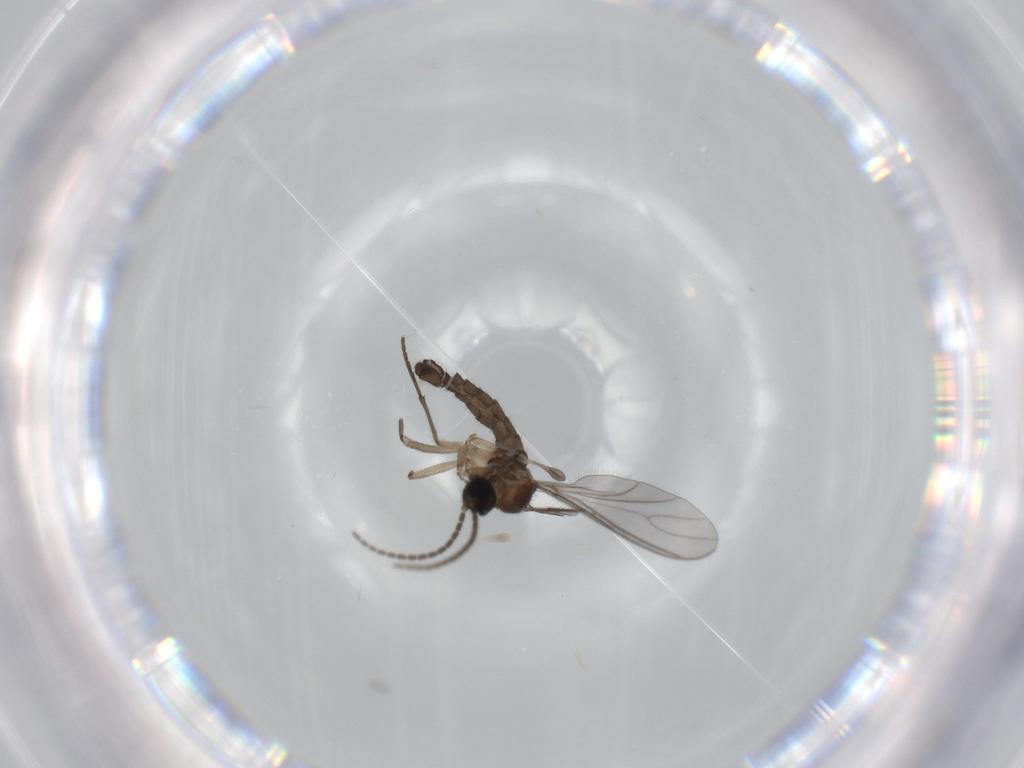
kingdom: Animalia
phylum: Arthropoda
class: Insecta
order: Diptera
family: Sciaridae
